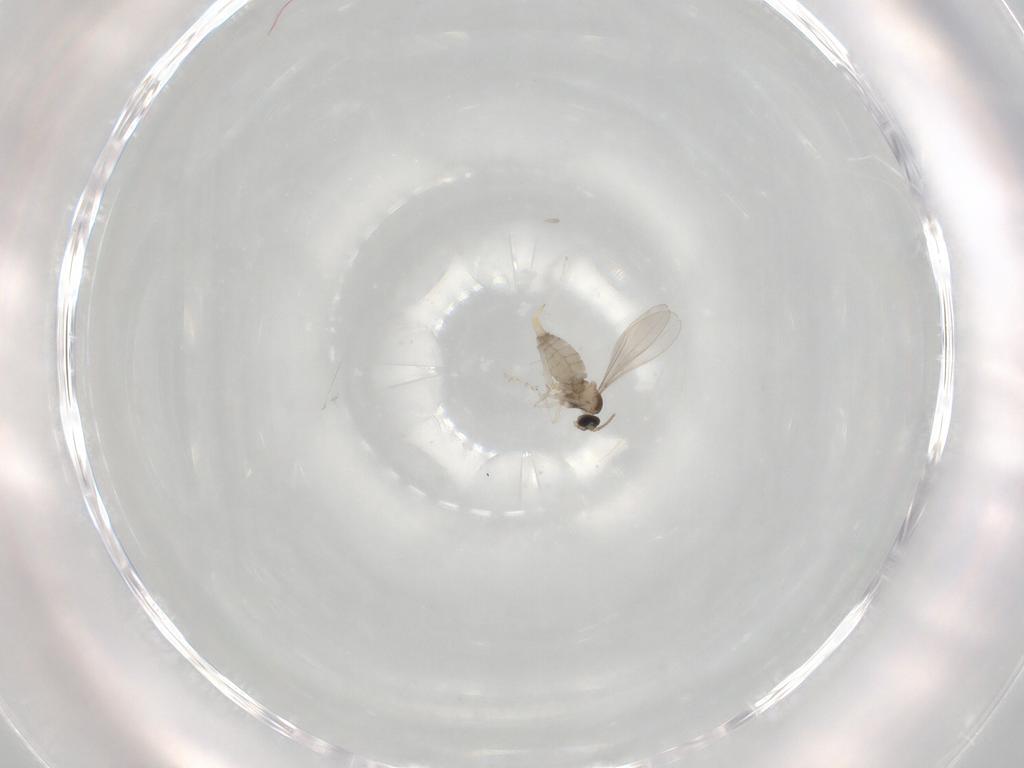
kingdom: Animalia
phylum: Arthropoda
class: Insecta
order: Diptera
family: Cecidomyiidae
